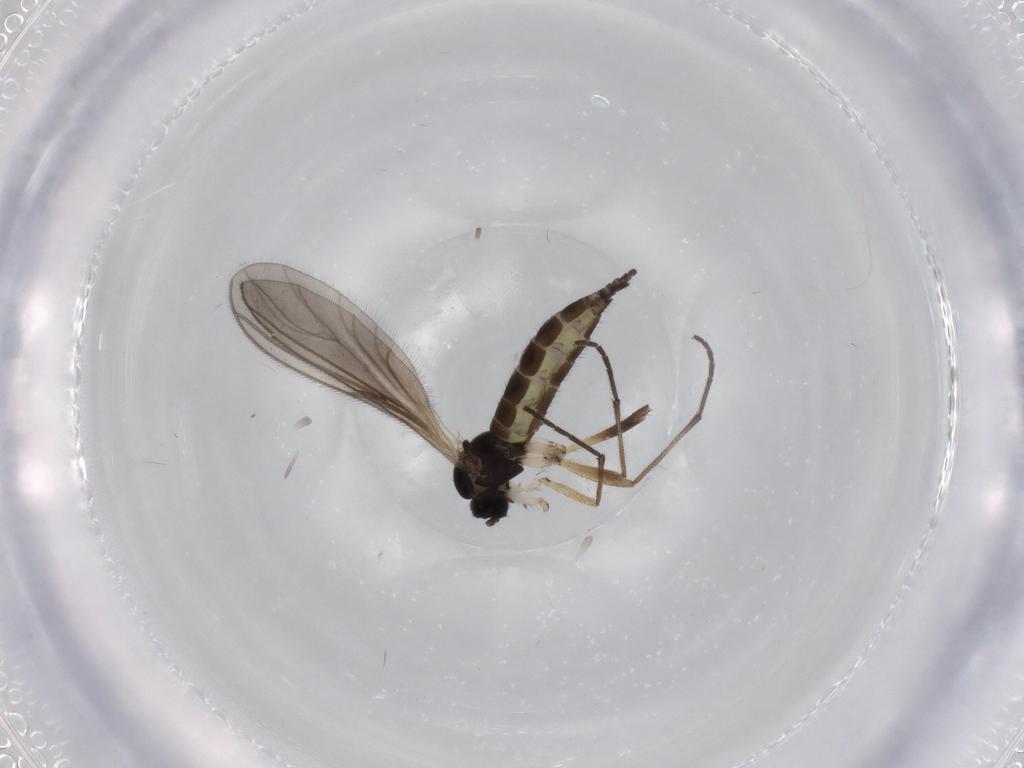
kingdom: Animalia
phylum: Arthropoda
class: Insecta
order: Diptera
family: Sciaridae
